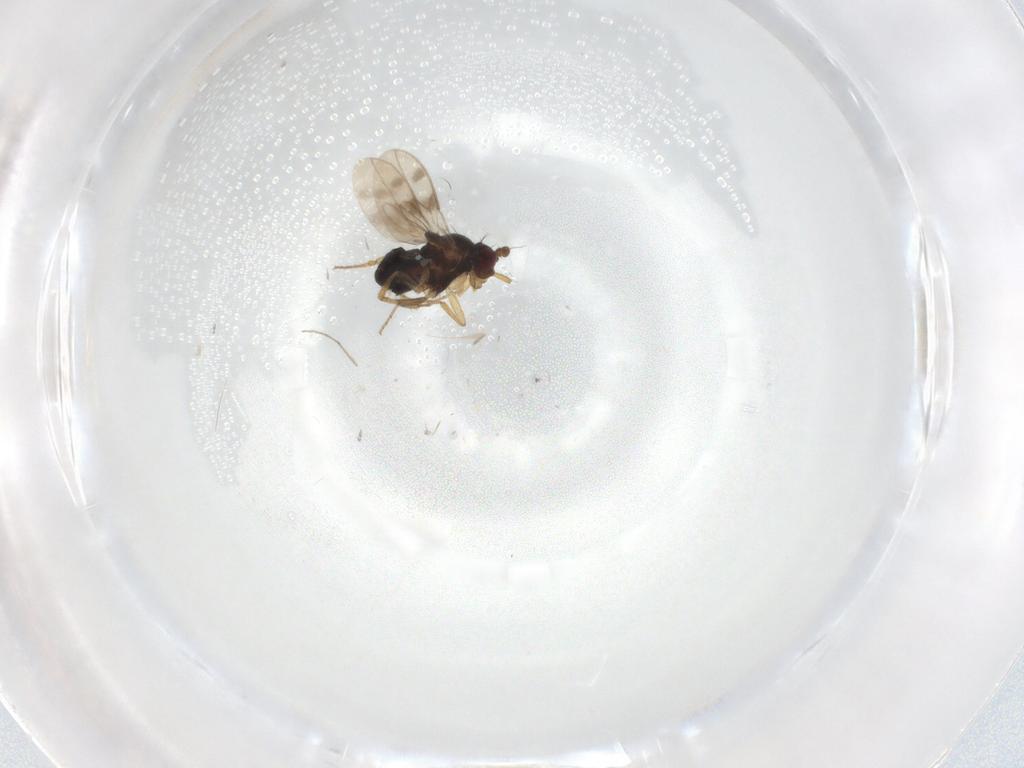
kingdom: Animalia
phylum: Arthropoda
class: Insecta
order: Diptera
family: Sphaeroceridae
